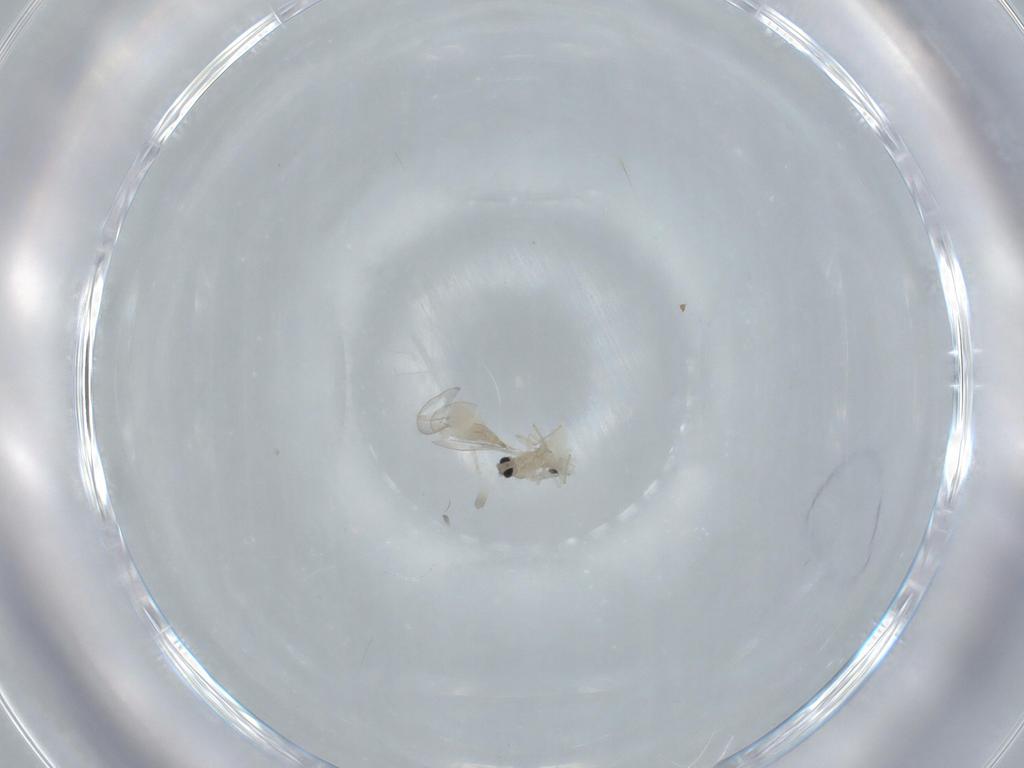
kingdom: Animalia
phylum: Arthropoda
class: Insecta
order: Diptera
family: Cecidomyiidae
